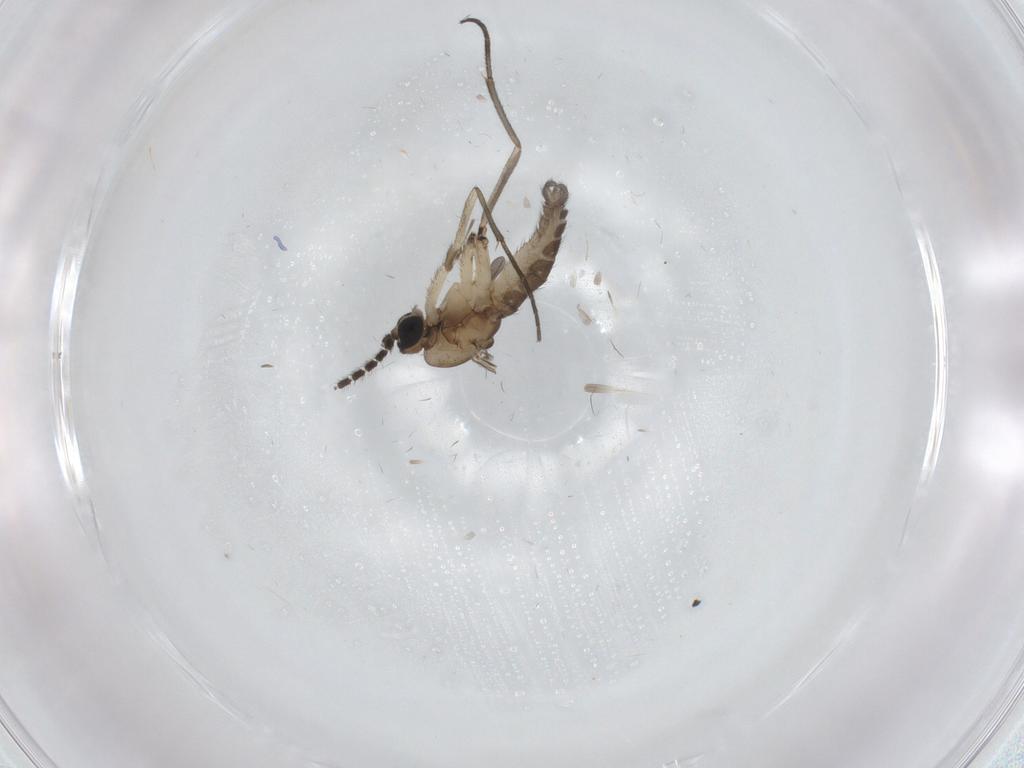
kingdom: Animalia
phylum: Arthropoda
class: Insecta
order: Diptera
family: Sciaridae
